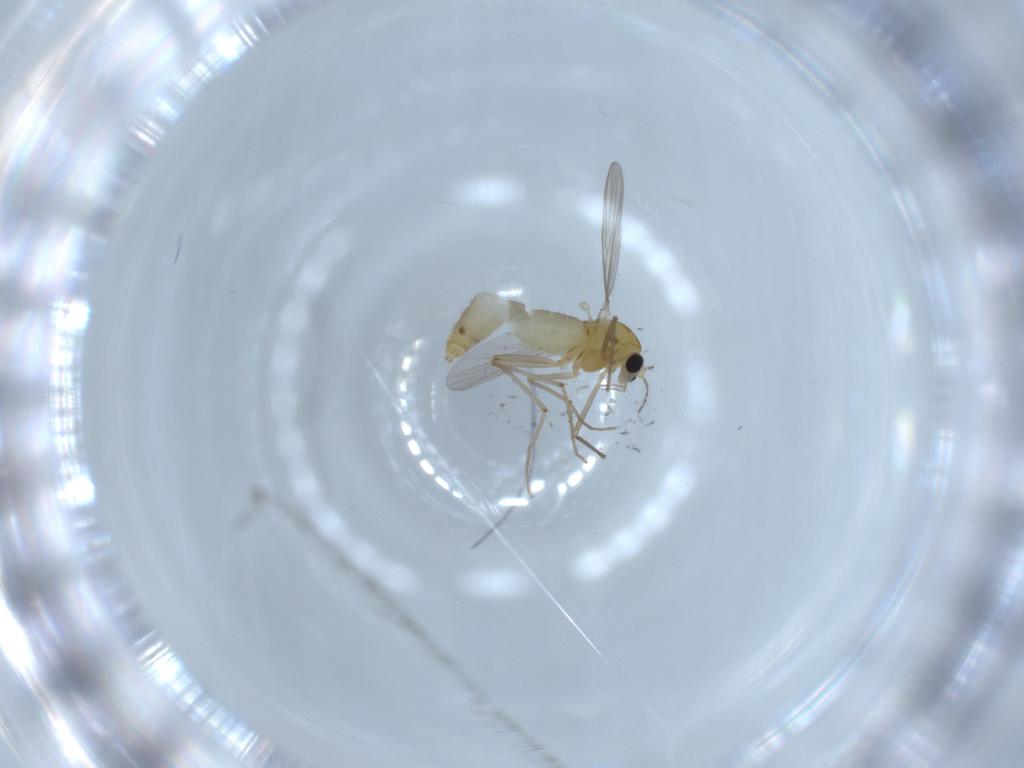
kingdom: Animalia
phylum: Arthropoda
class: Insecta
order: Diptera
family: Chironomidae
